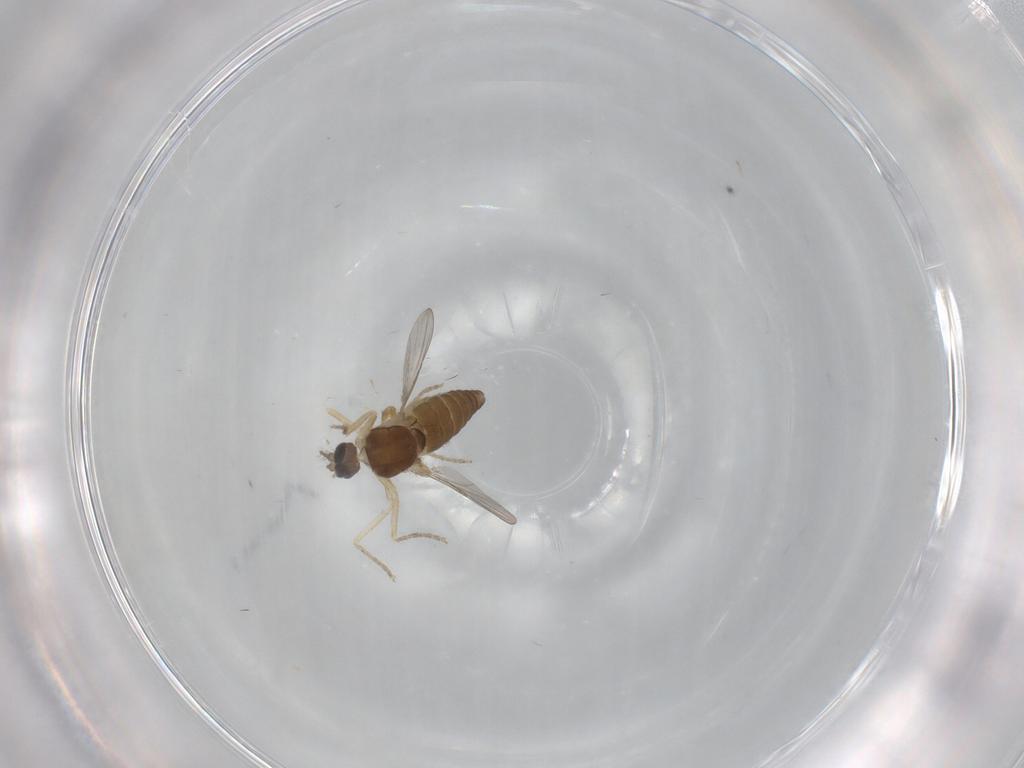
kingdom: Animalia
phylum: Arthropoda
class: Insecta
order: Diptera
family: Ceratopogonidae
